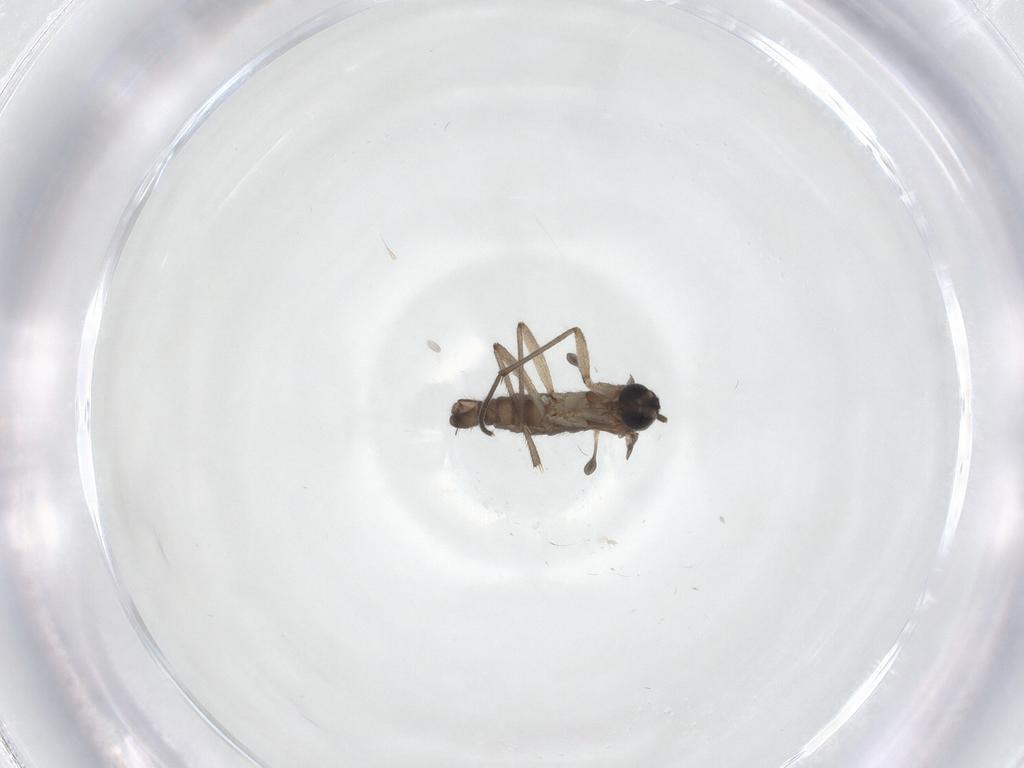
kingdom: Animalia
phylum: Arthropoda
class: Insecta
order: Diptera
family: Sciaridae
